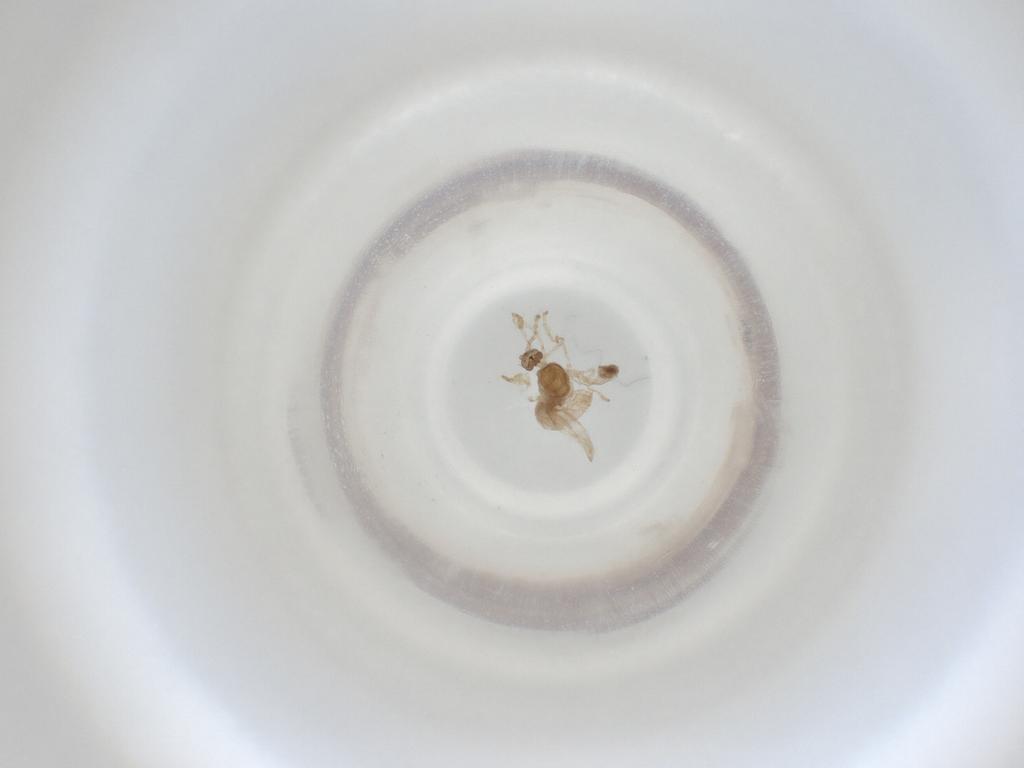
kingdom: Animalia
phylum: Arthropoda
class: Insecta
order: Diptera
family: Cecidomyiidae
